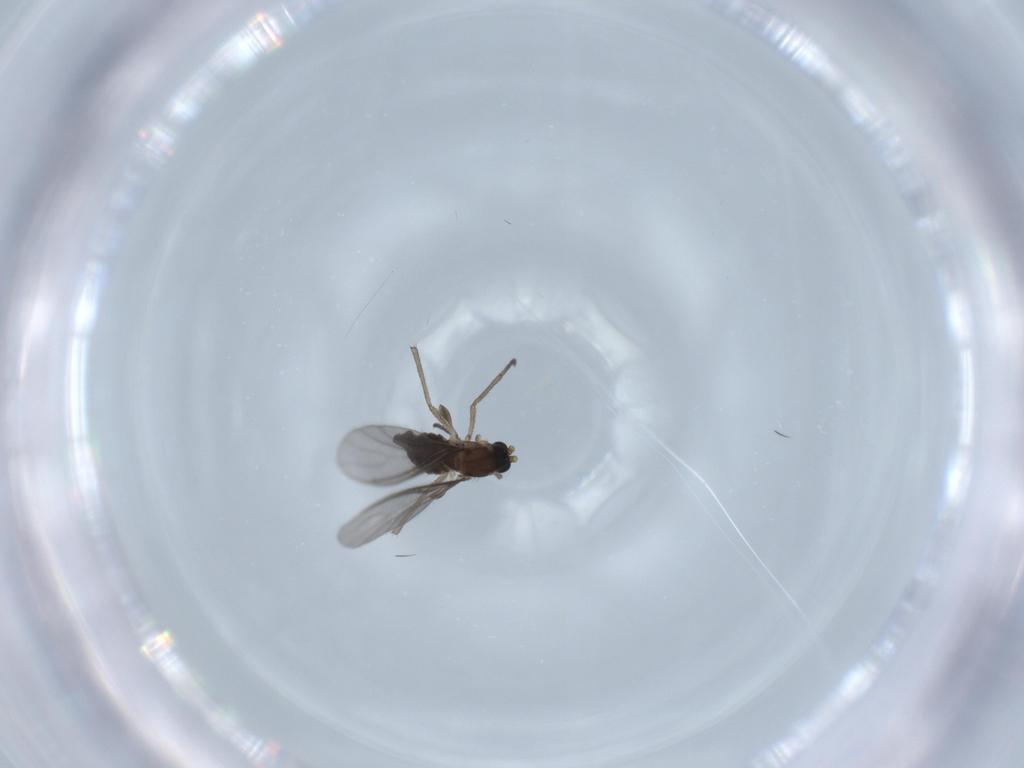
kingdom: Animalia
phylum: Arthropoda
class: Insecta
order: Diptera
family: Sciaridae
